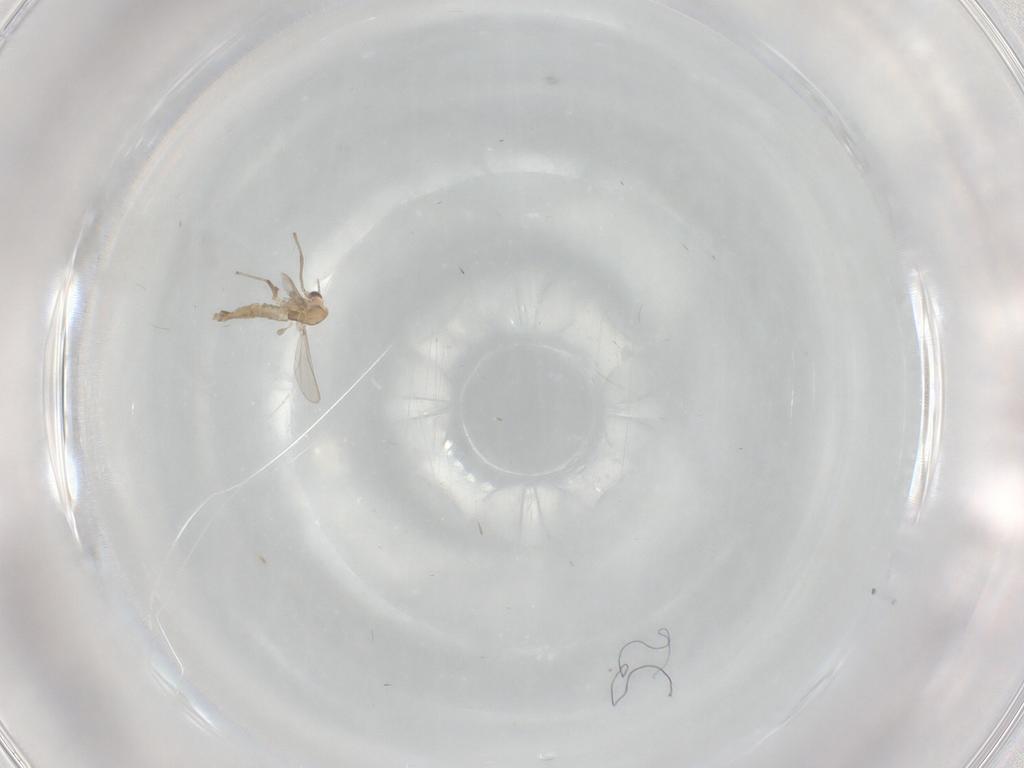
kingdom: Animalia
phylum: Arthropoda
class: Insecta
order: Diptera
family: Chironomidae
